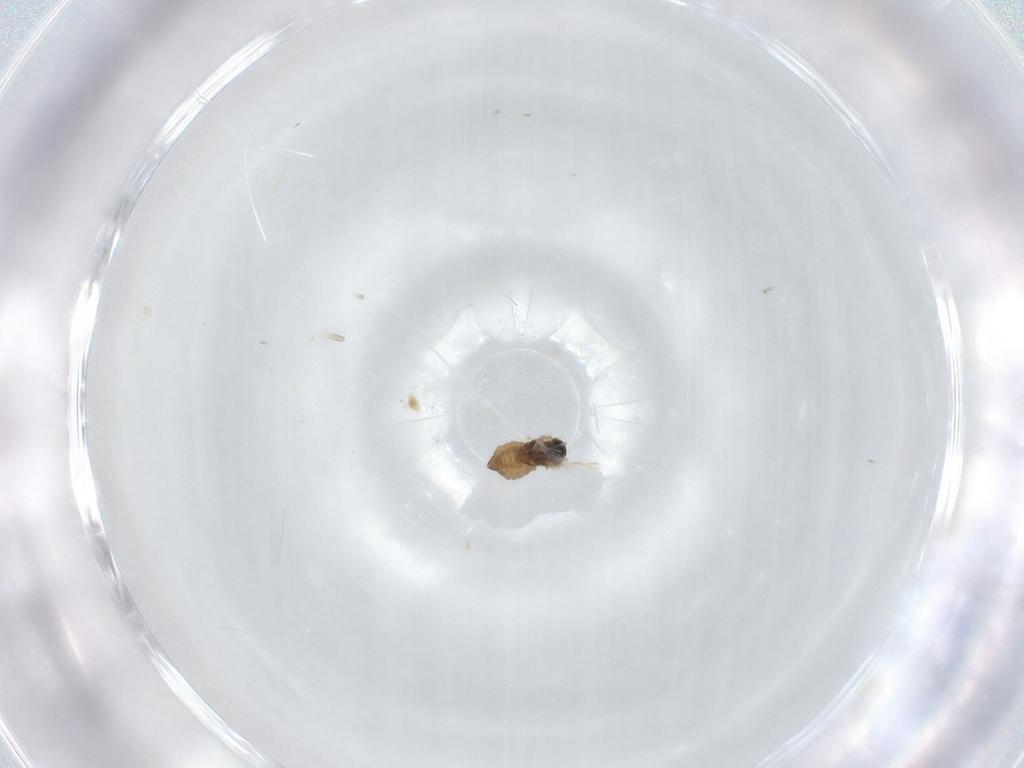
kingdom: Animalia
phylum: Arthropoda
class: Insecta
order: Diptera
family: Cecidomyiidae
